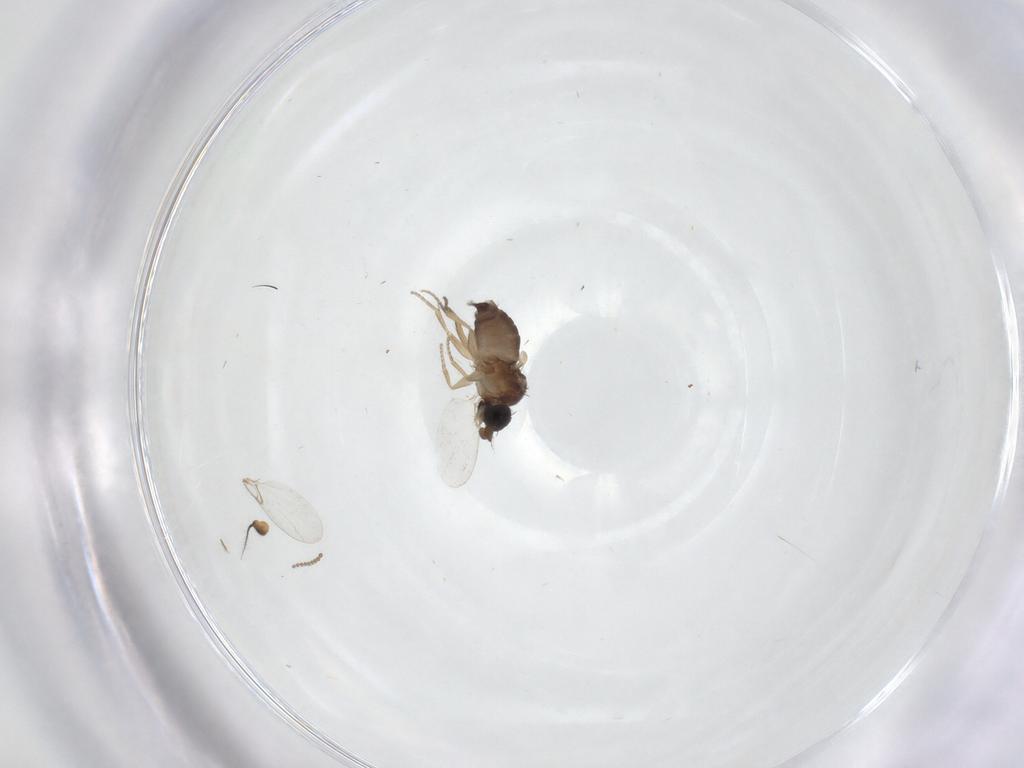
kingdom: Animalia
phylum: Arthropoda
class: Insecta
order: Diptera
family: Phoridae
